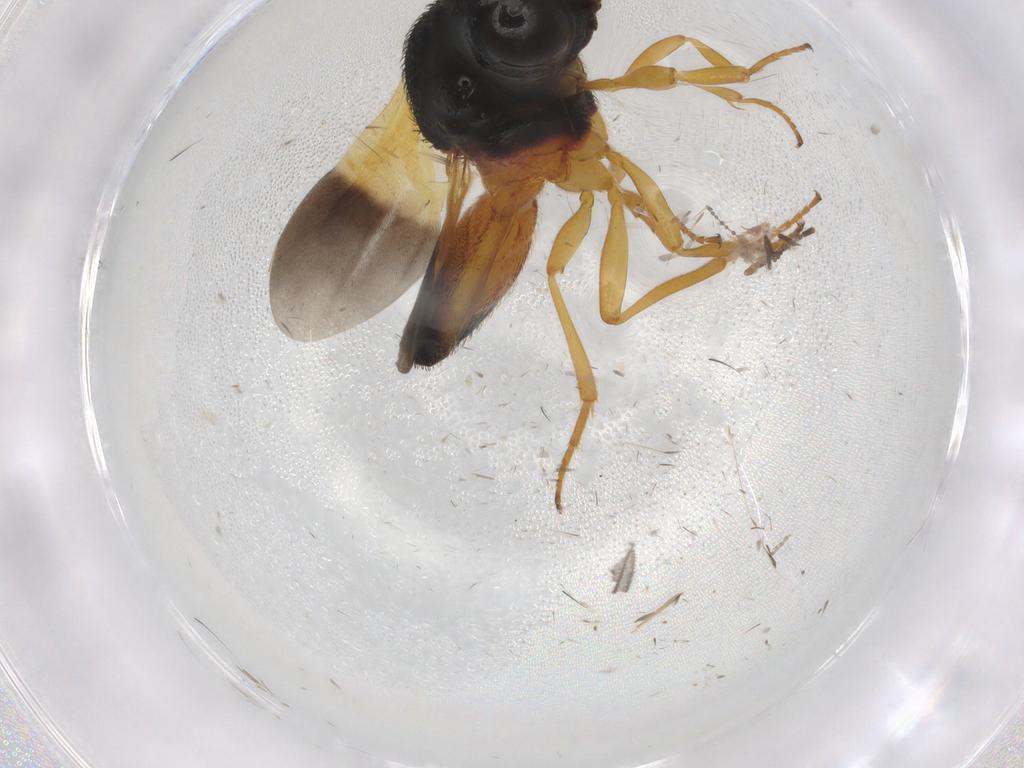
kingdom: Animalia
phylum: Arthropoda
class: Insecta
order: Hymenoptera
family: Scelionidae
